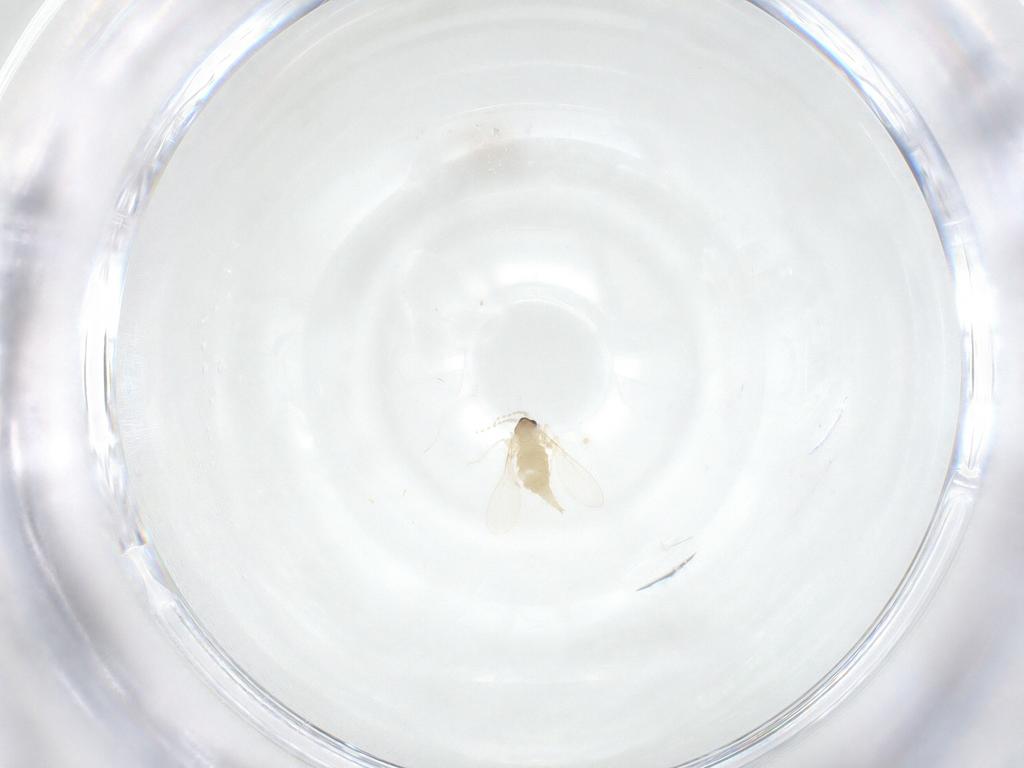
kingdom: Animalia
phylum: Arthropoda
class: Insecta
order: Diptera
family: Cecidomyiidae
